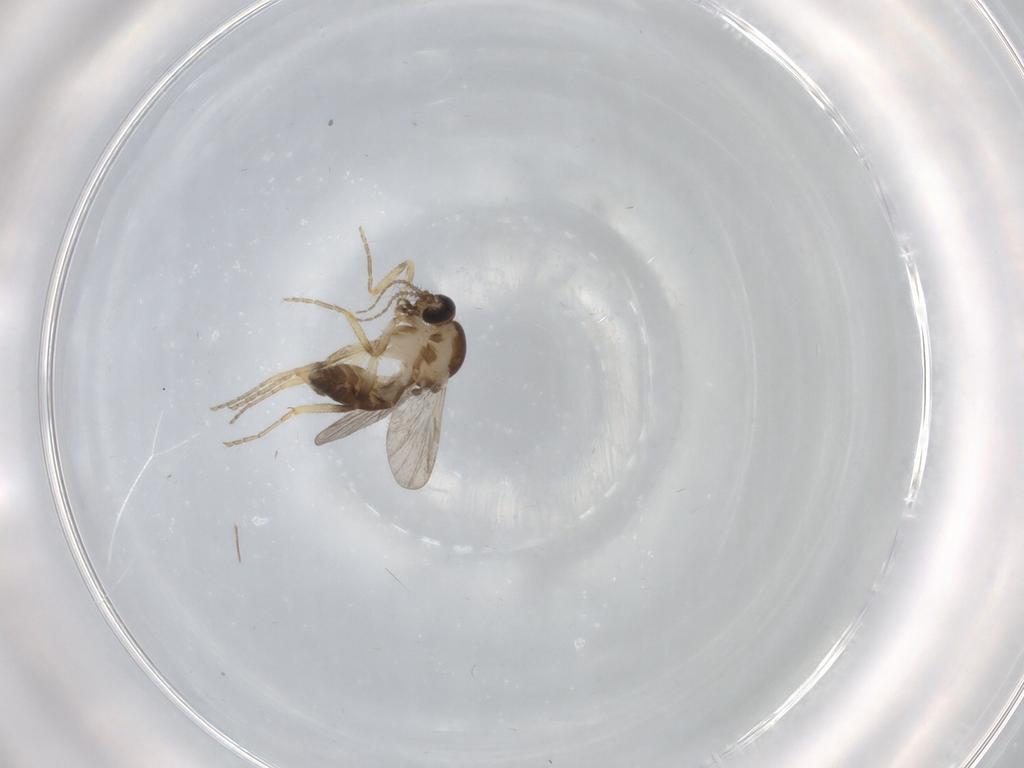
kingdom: Animalia
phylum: Arthropoda
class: Insecta
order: Diptera
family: Ceratopogonidae
